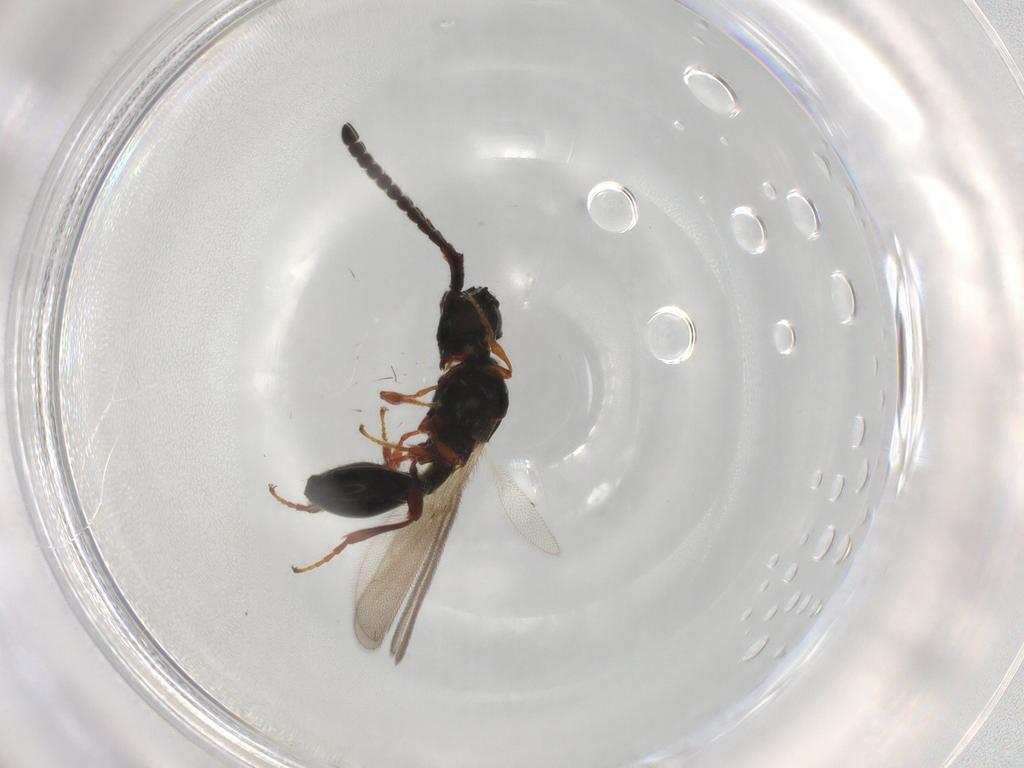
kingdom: Animalia
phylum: Arthropoda
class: Insecta
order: Hymenoptera
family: Diapriidae
